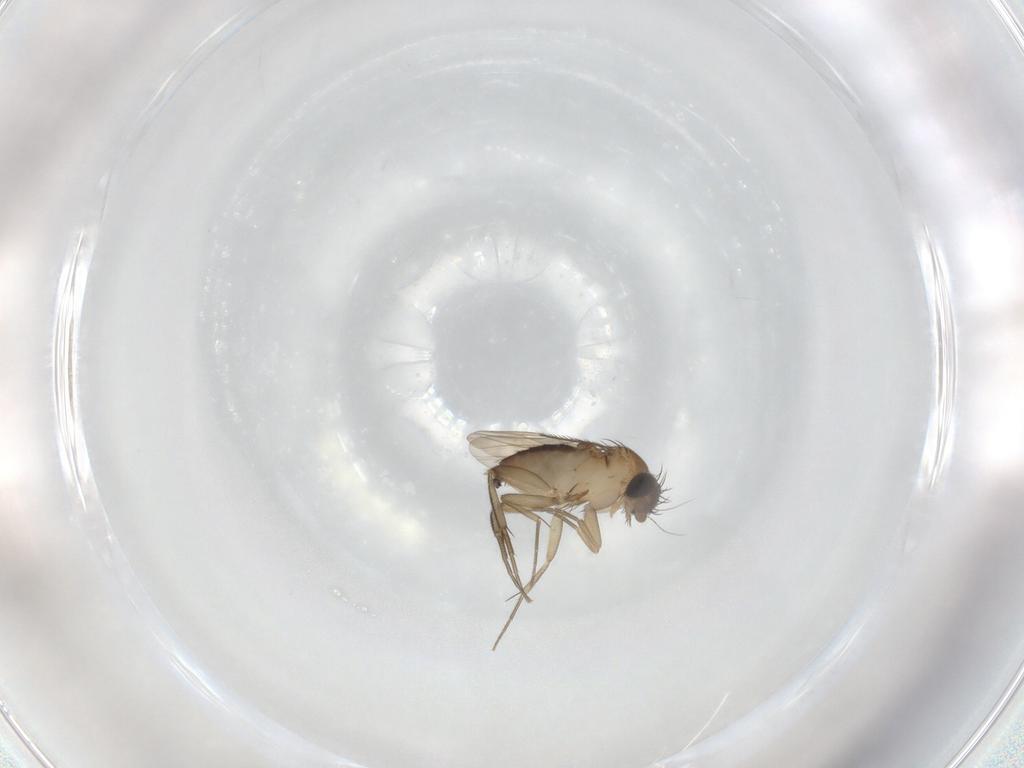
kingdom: Animalia
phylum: Arthropoda
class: Insecta
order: Diptera
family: Phoridae
